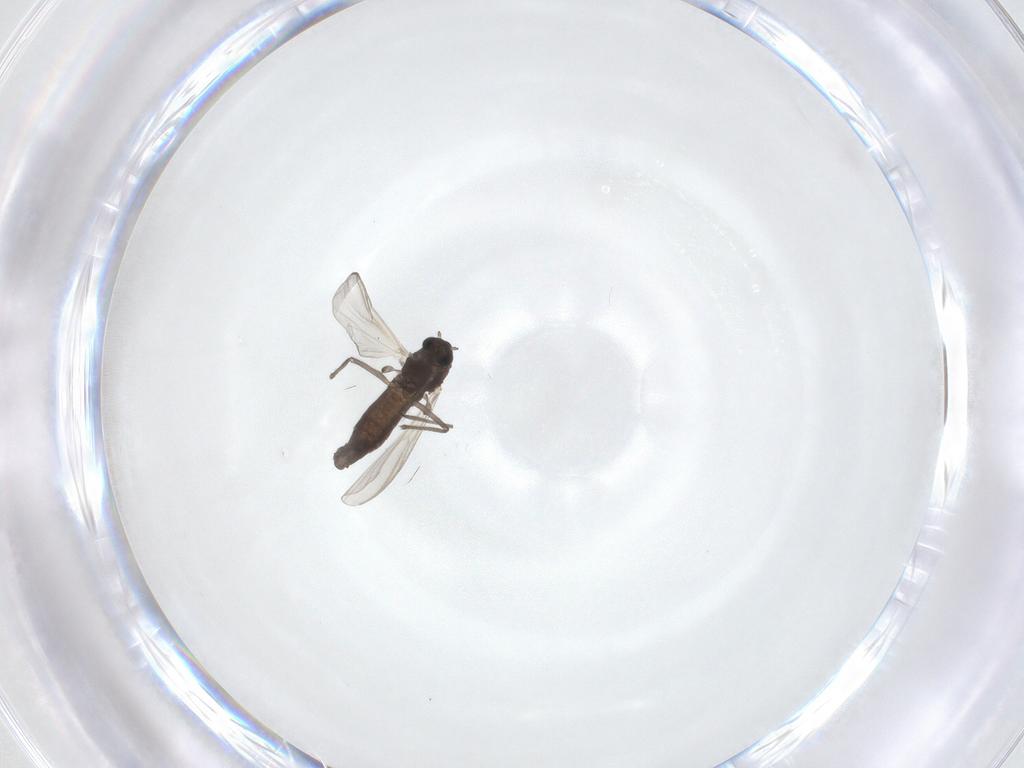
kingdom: Animalia
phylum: Arthropoda
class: Insecta
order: Diptera
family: Chironomidae
